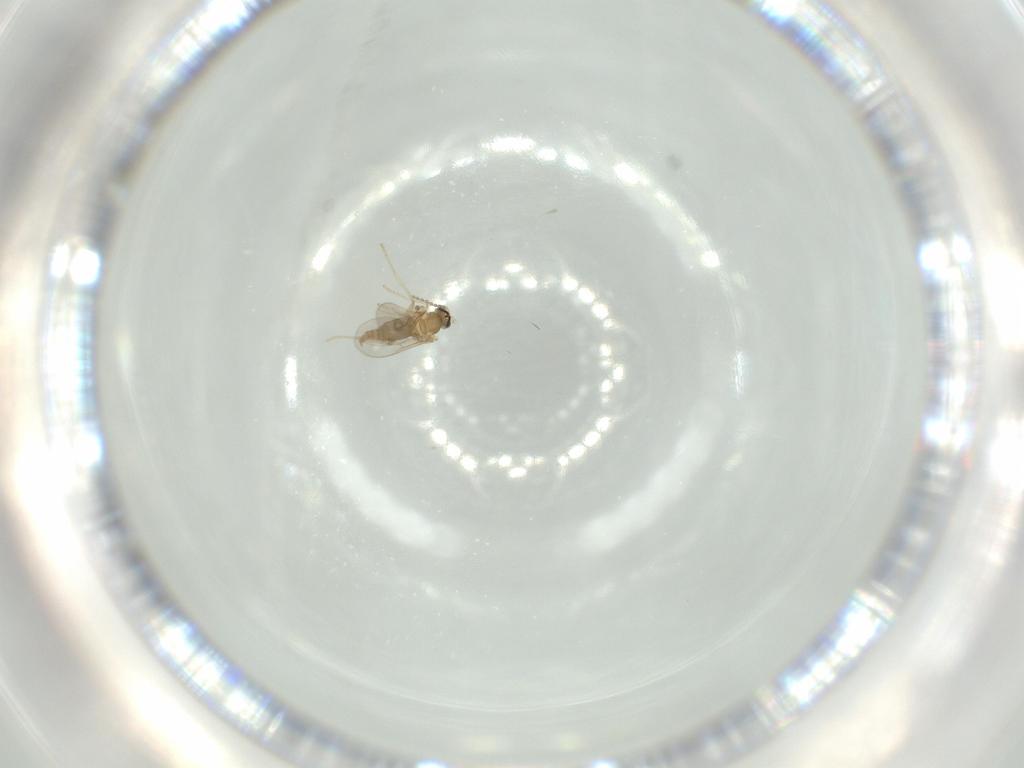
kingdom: Animalia
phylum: Arthropoda
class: Insecta
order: Diptera
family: Cecidomyiidae
